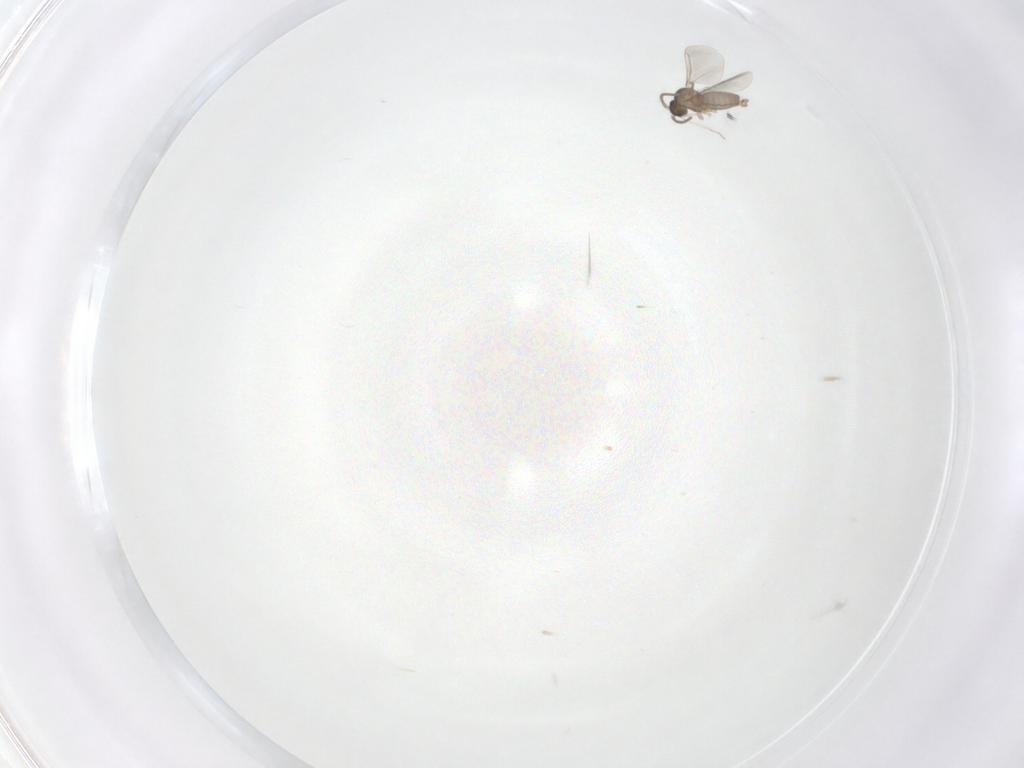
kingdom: Animalia
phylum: Arthropoda
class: Insecta
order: Diptera
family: Cecidomyiidae
